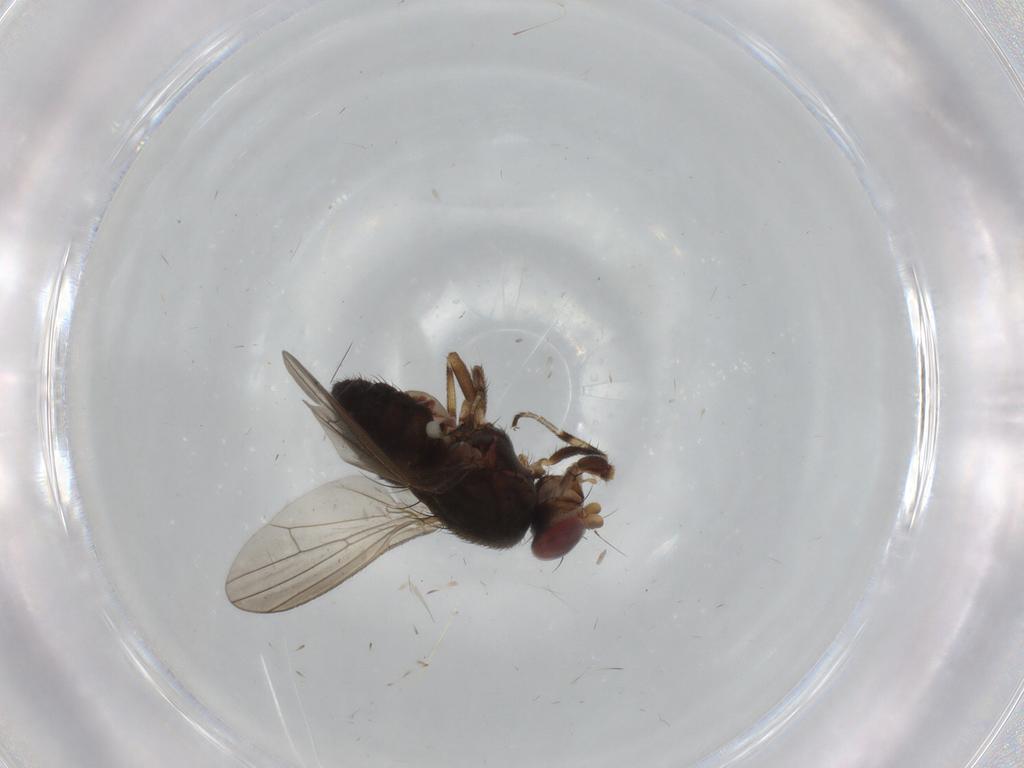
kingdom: Animalia
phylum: Arthropoda
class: Insecta
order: Diptera
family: Heleomyzidae
